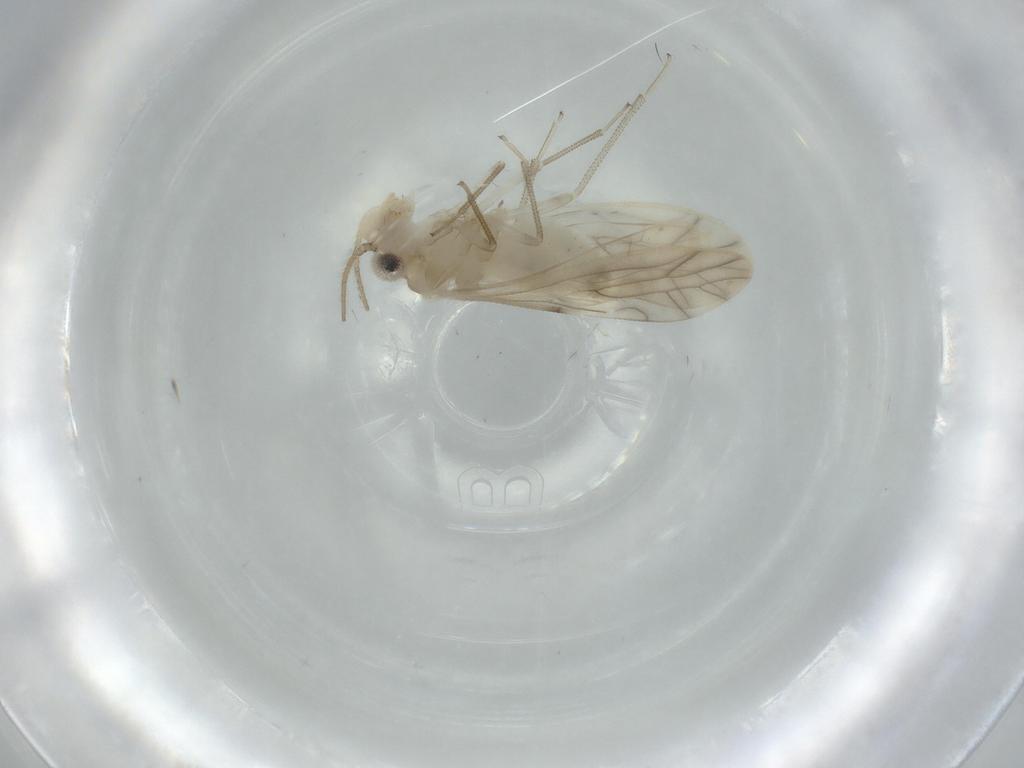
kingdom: Animalia
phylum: Arthropoda
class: Insecta
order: Psocodea
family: Caeciliusidae
